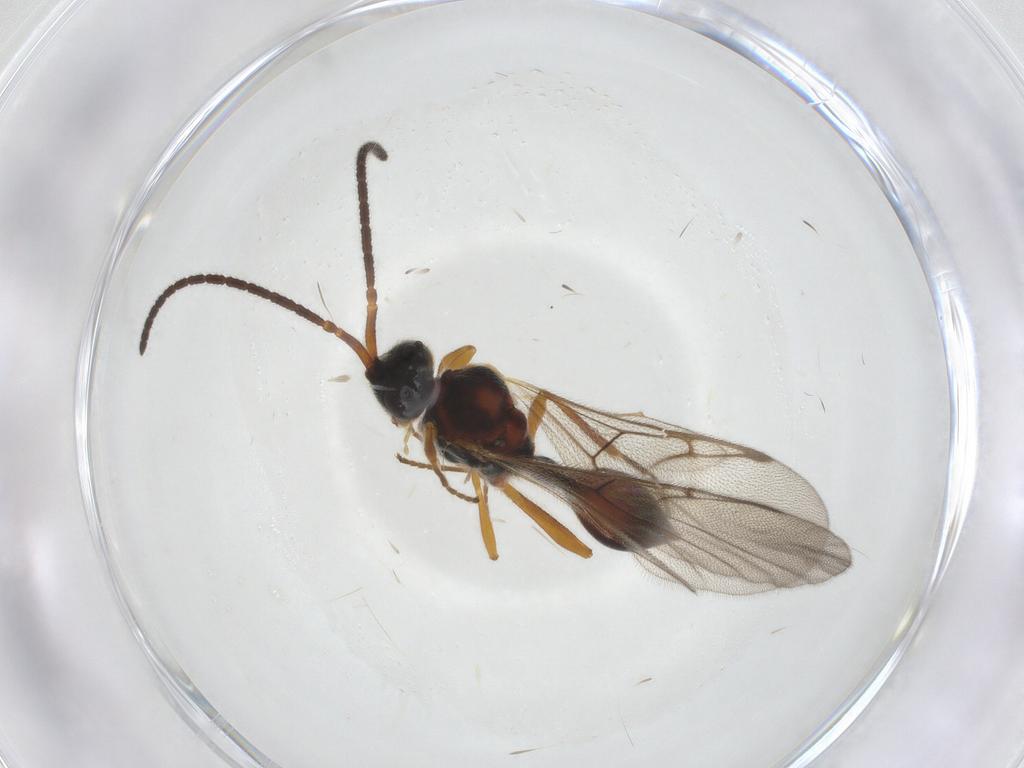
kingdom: Animalia
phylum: Arthropoda
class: Insecta
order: Hymenoptera
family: Diapriidae
